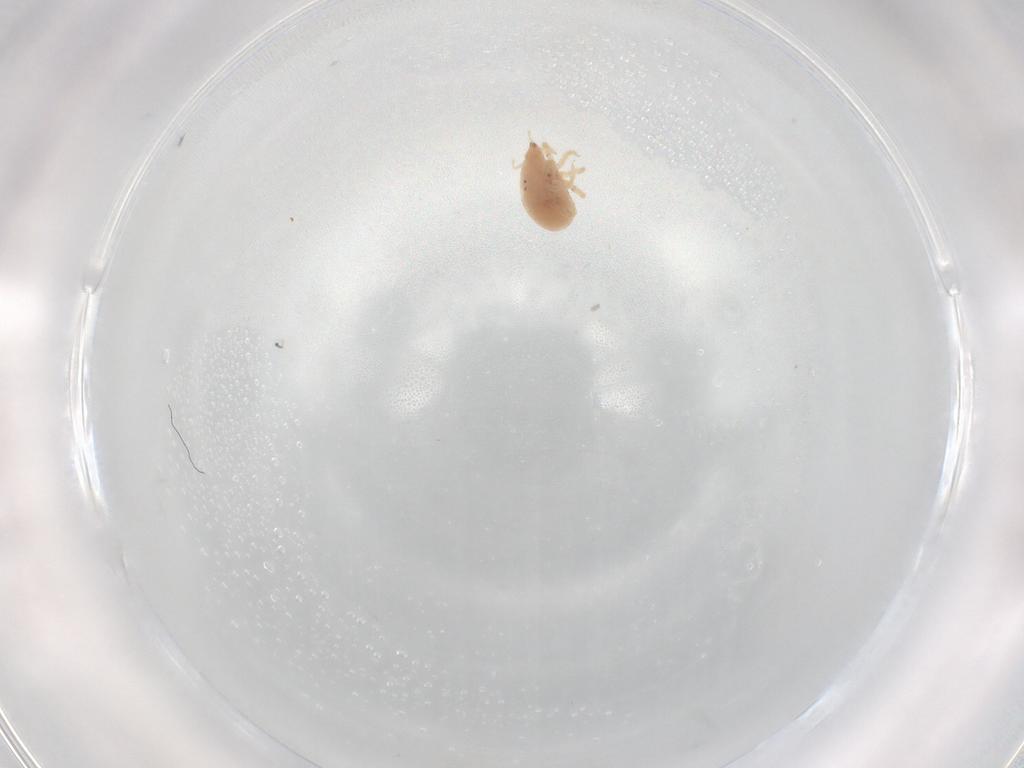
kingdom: Animalia
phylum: Arthropoda
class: Arachnida
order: Trombidiformes
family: Bdellidae
